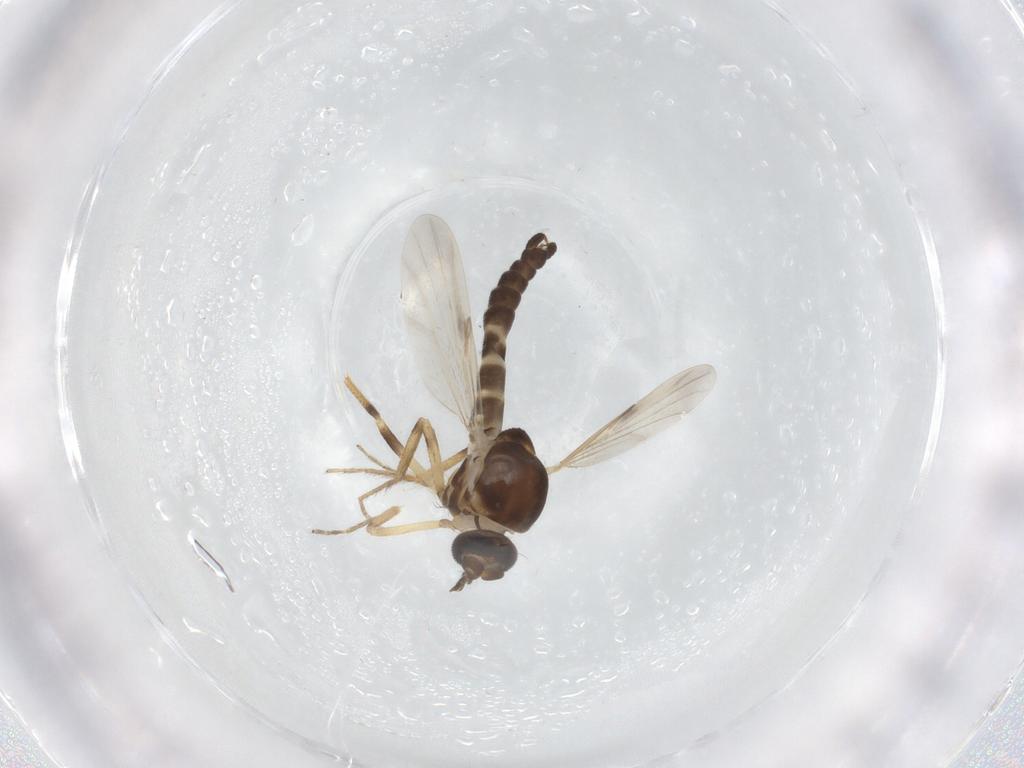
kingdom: Animalia
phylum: Arthropoda
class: Insecta
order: Diptera
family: Ceratopogonidae
